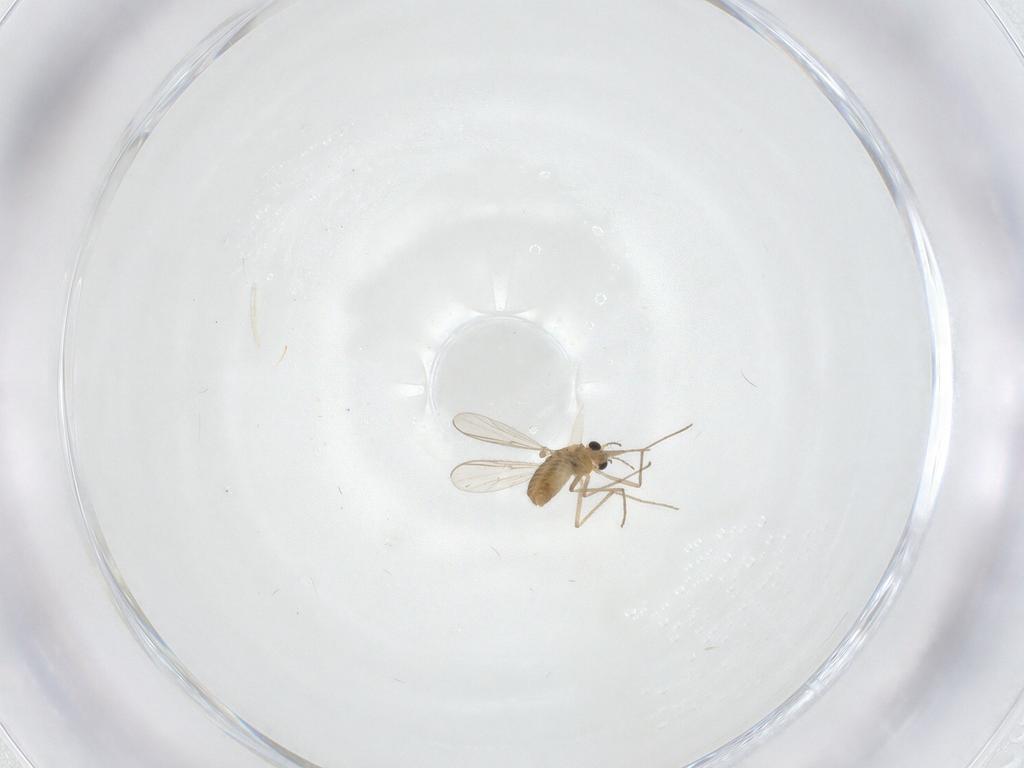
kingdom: Animalia
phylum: Arthropoda
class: Insecta
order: Diptera
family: Chironomidae
